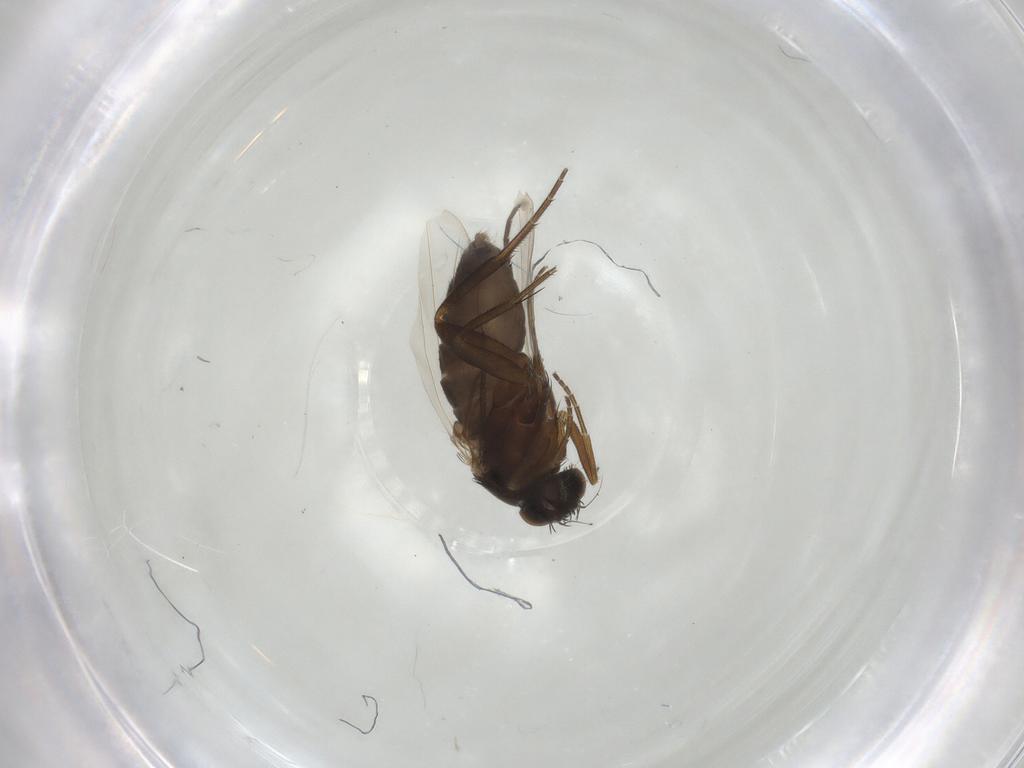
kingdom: Animalia
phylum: Arthropoda
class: Insecta
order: Diptera
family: Phoridae
